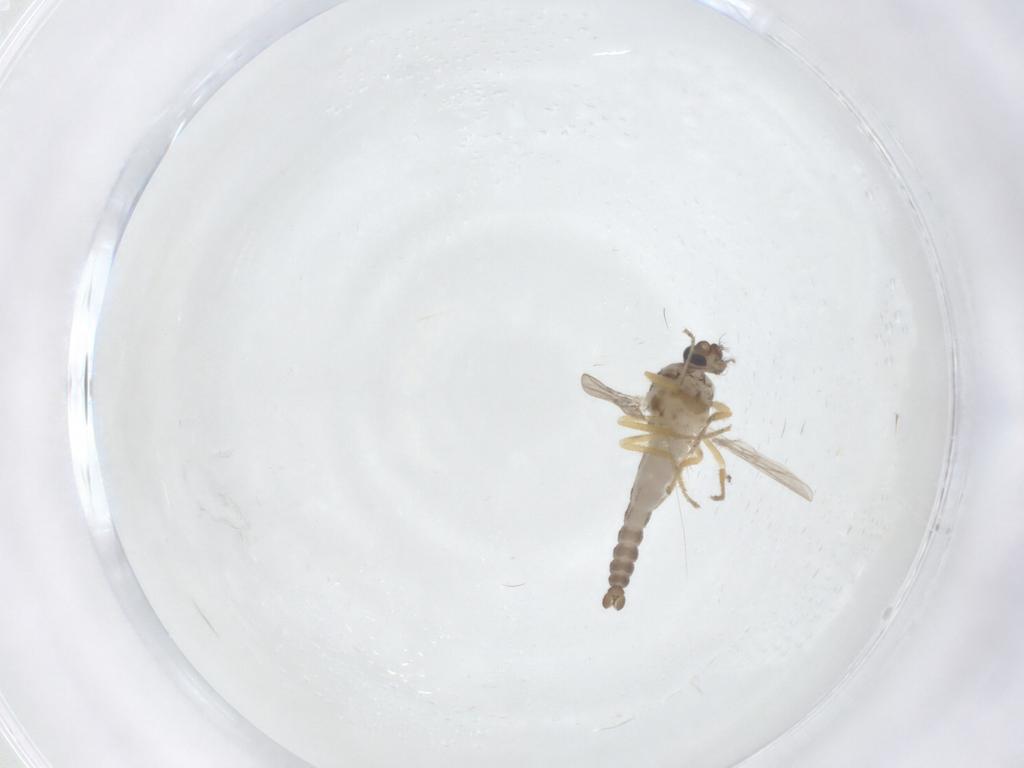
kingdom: Animalia
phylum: Arthropoda
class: Insecta
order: Diptera
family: Ceratopogonidae
